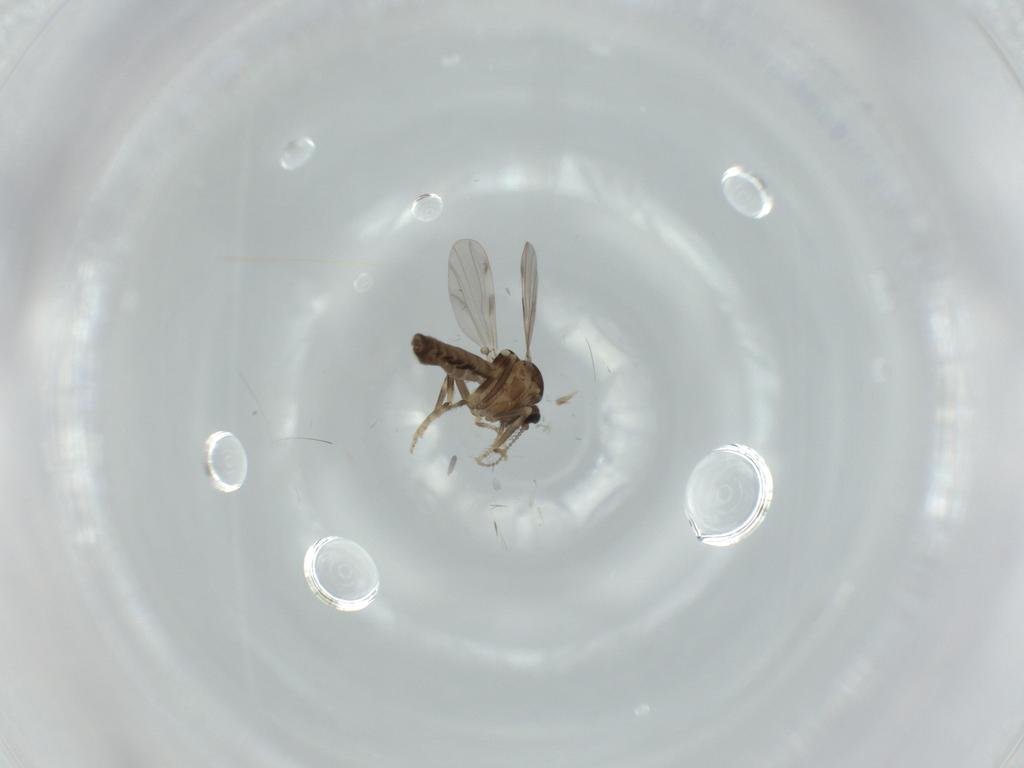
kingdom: Animalia
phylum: Arthropoda
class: Insecta
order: Diptera
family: Ceratopogonidae
